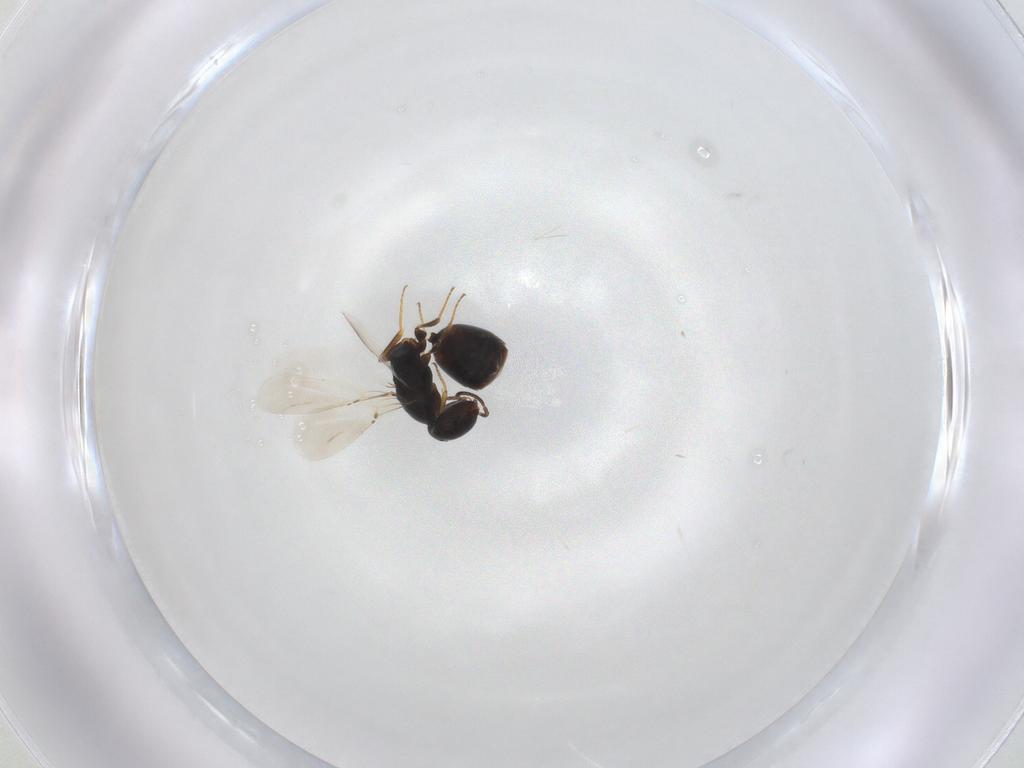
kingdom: Animalia
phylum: Arthropoda
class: Insecta
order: Hymenoptera
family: Bethylidae
